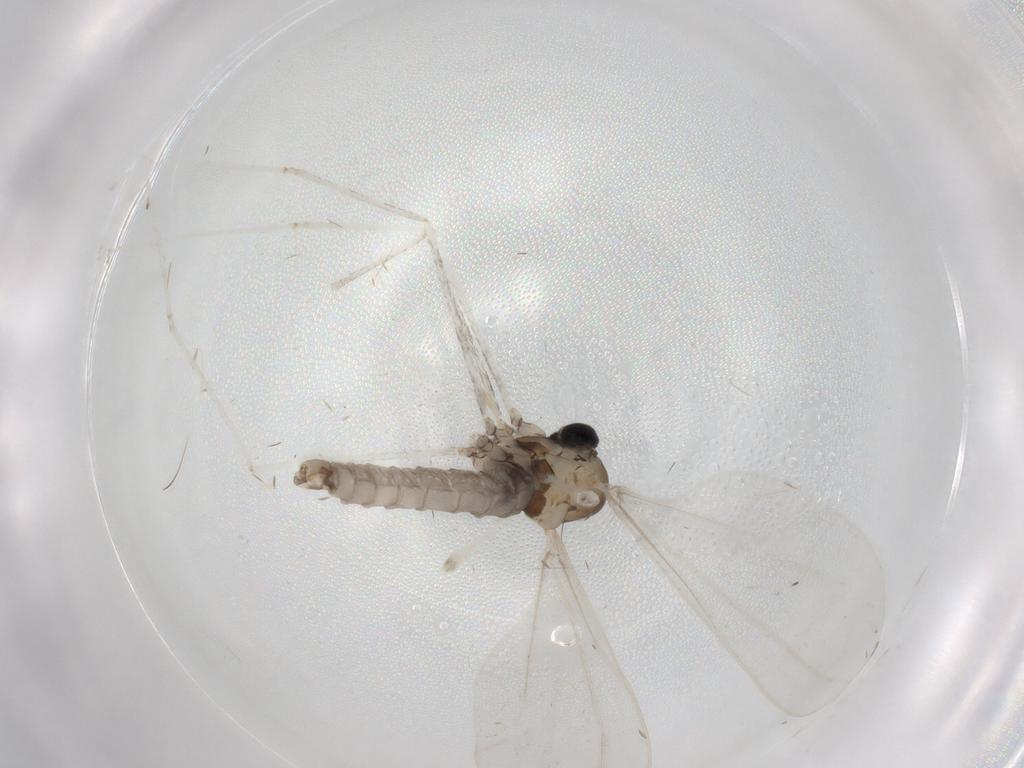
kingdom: Animalia
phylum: Arthropoda
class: Insecta
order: Diptera
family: Cecidomyiidae
